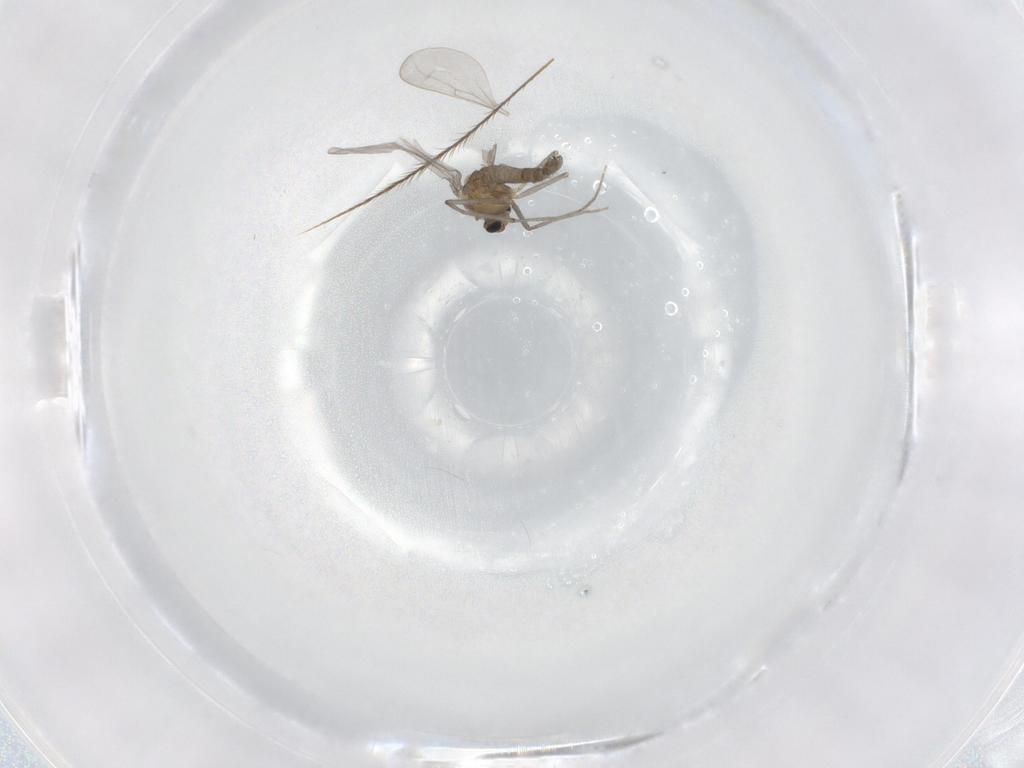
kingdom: Animalia
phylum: Arthropoda
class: Insecta
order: Diptera
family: Chironomidae
